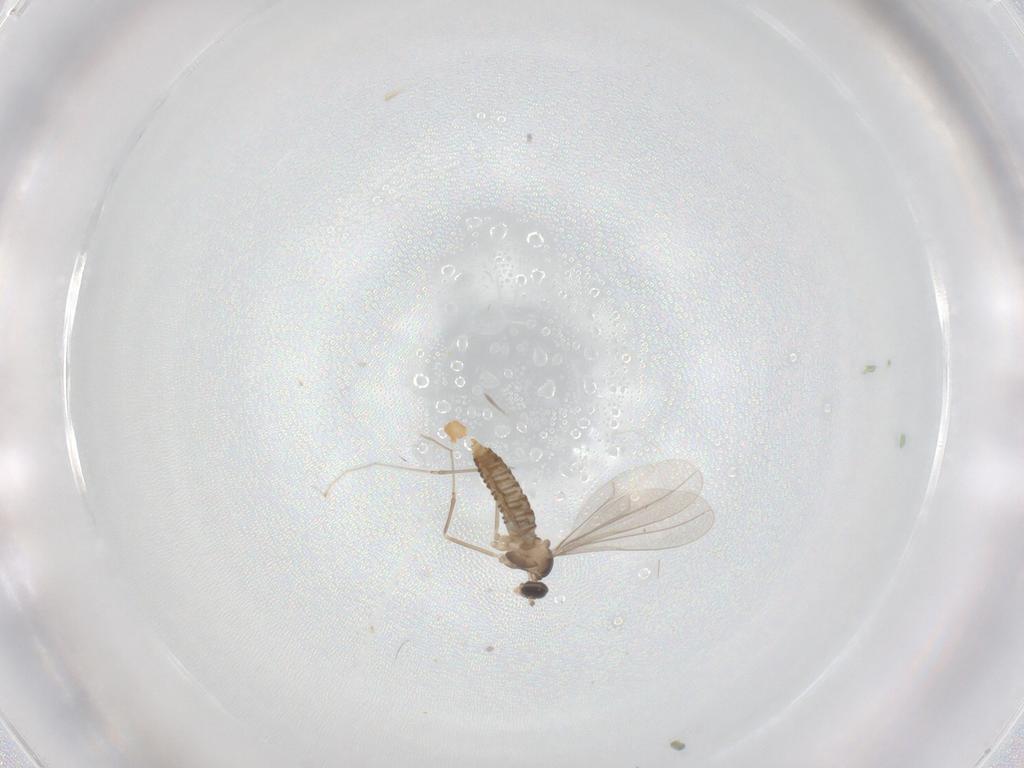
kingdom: Animalia
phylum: Arthropoda
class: Insecta
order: Diptera
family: Cecidomyiidae
